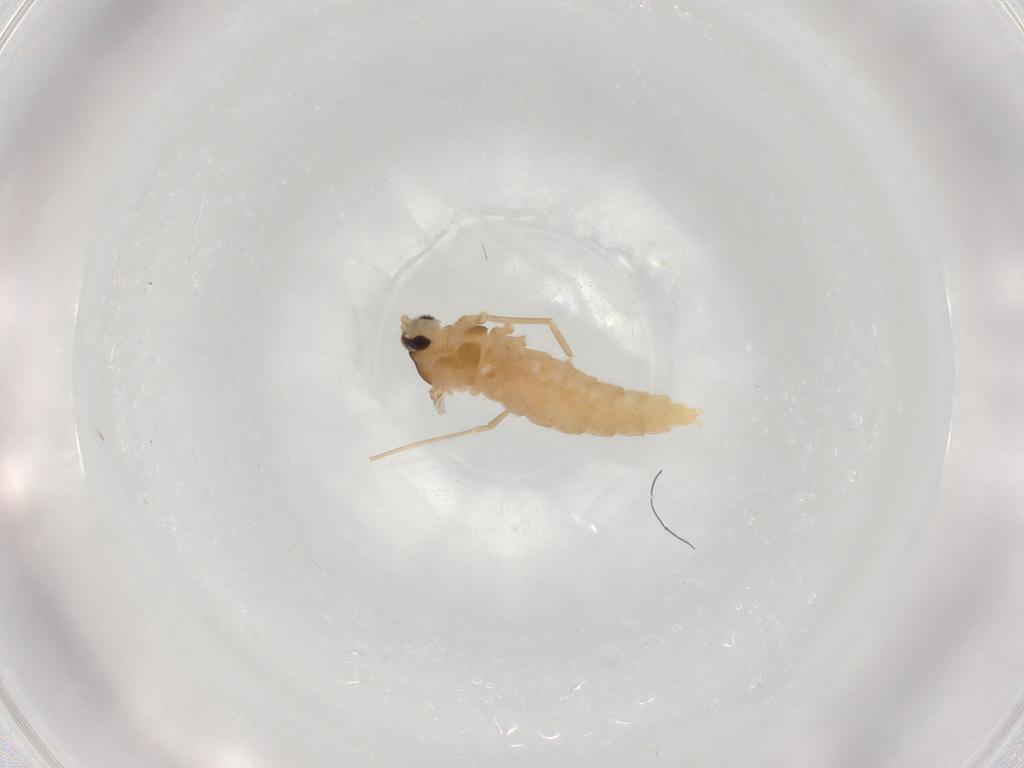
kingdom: Animalia
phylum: Arthropoda
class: Insecta
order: Diptera
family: Cecidomyiidae
